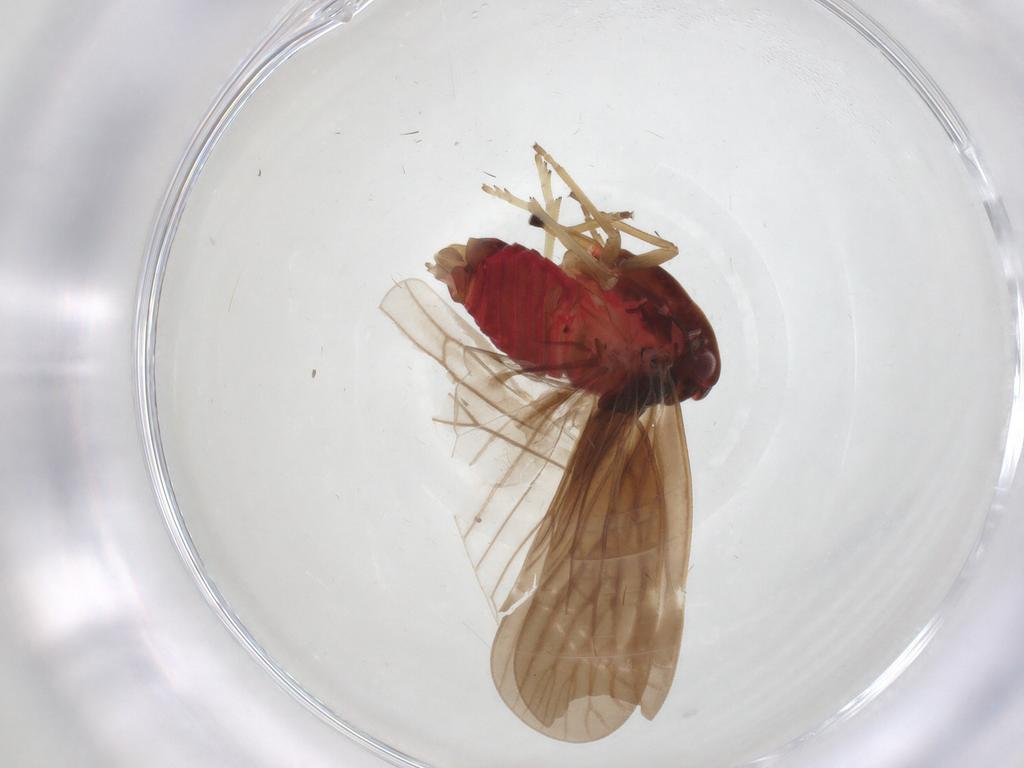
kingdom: Animalia
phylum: Arthropoda
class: Insecta
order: Hemiptera
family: Derbidae
